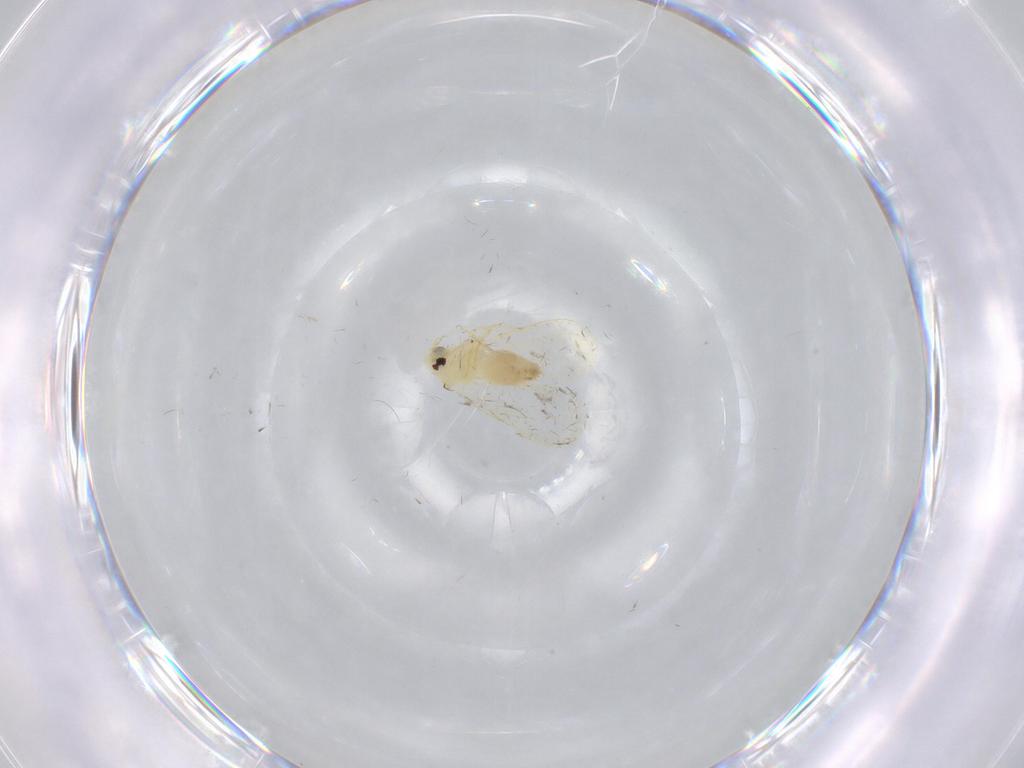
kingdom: Animalia
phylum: Arthropoda
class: Insecta
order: Hemiptera
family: Aleyrodidae
